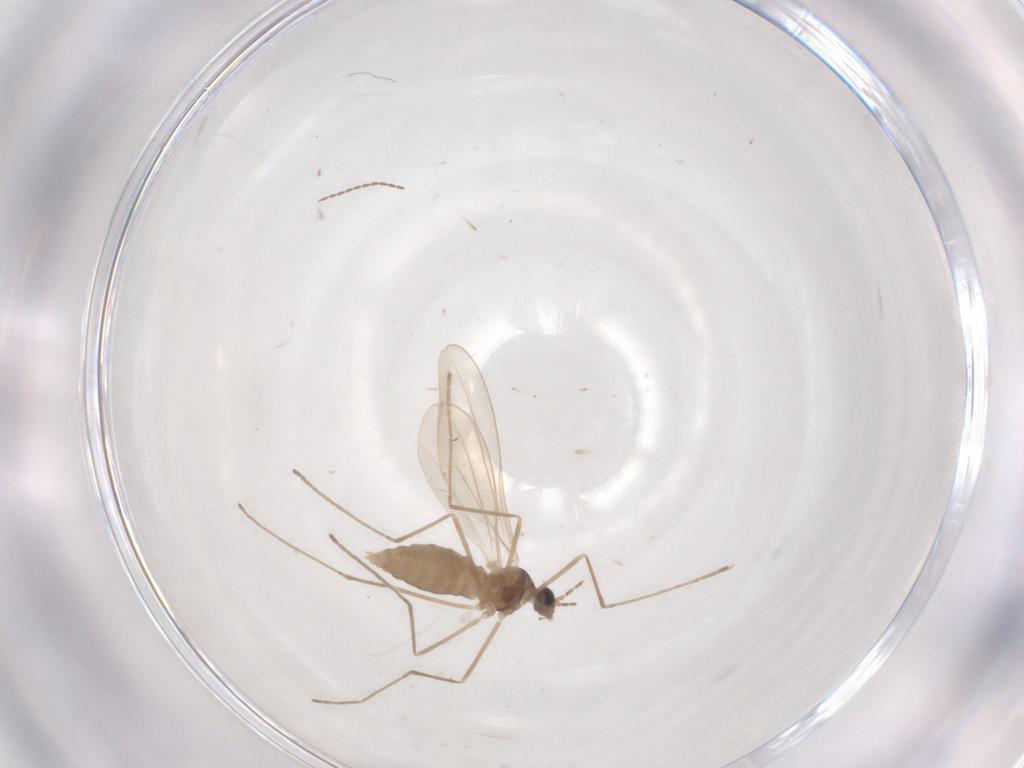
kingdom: Animalia
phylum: Arthropoda
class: Insecta
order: Diptera
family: Cecidomyiidae
